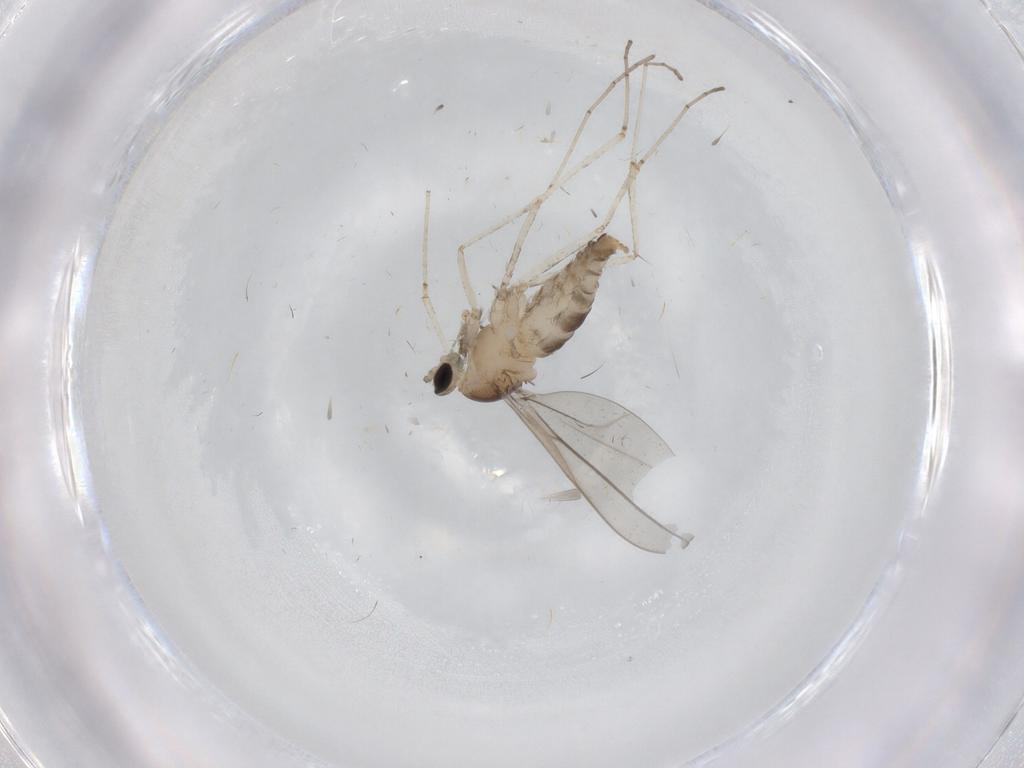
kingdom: Animalia
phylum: Arthropoda
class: Insecta
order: Diptera
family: Cecidomyiidae
